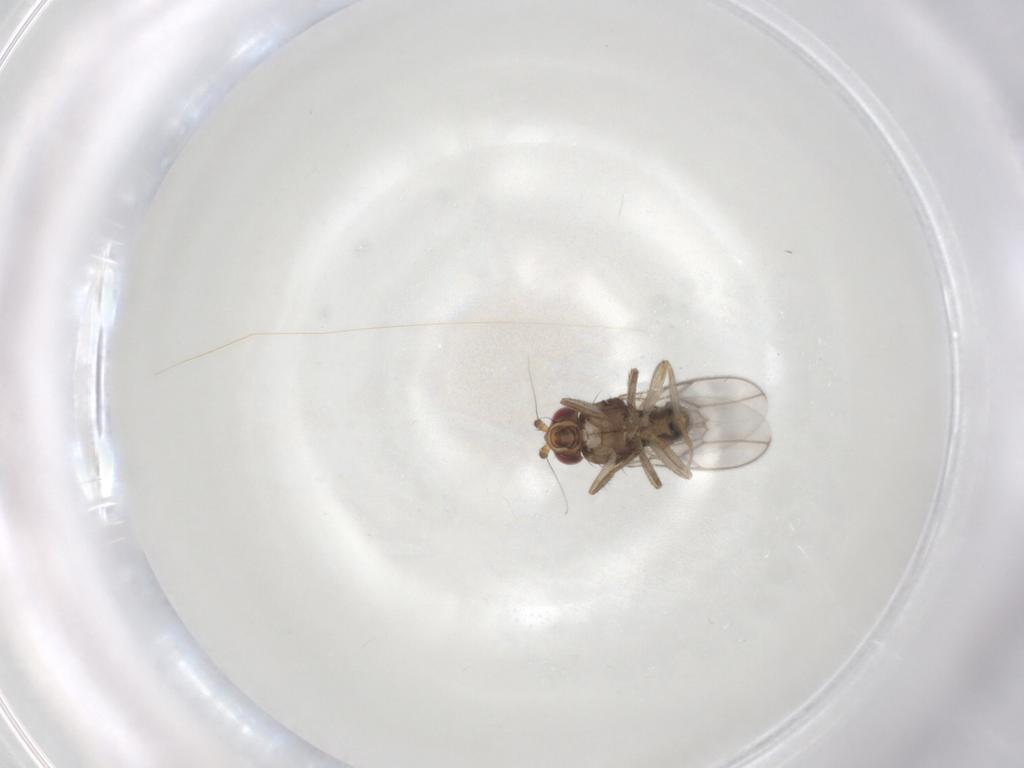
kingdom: Animalia
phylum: Arthropoda
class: Insecta
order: Diptera
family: Sphaeroceridae
